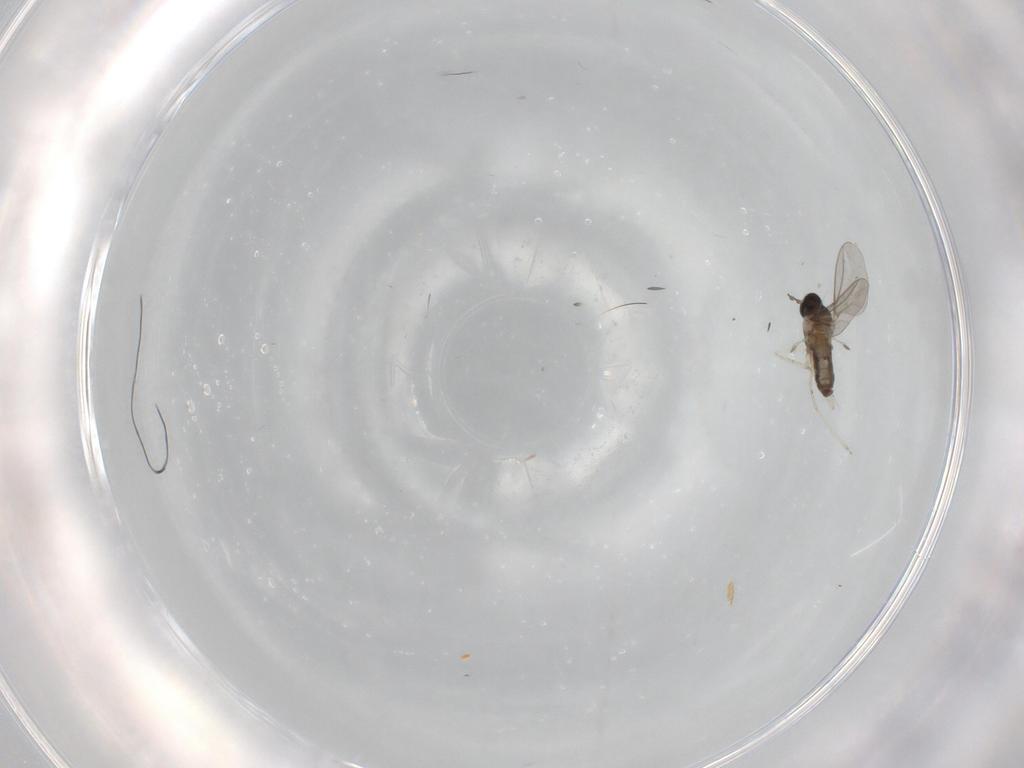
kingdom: Animalia
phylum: Arthropoda
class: Insecta
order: Diptera
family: Cecidomyiidae
